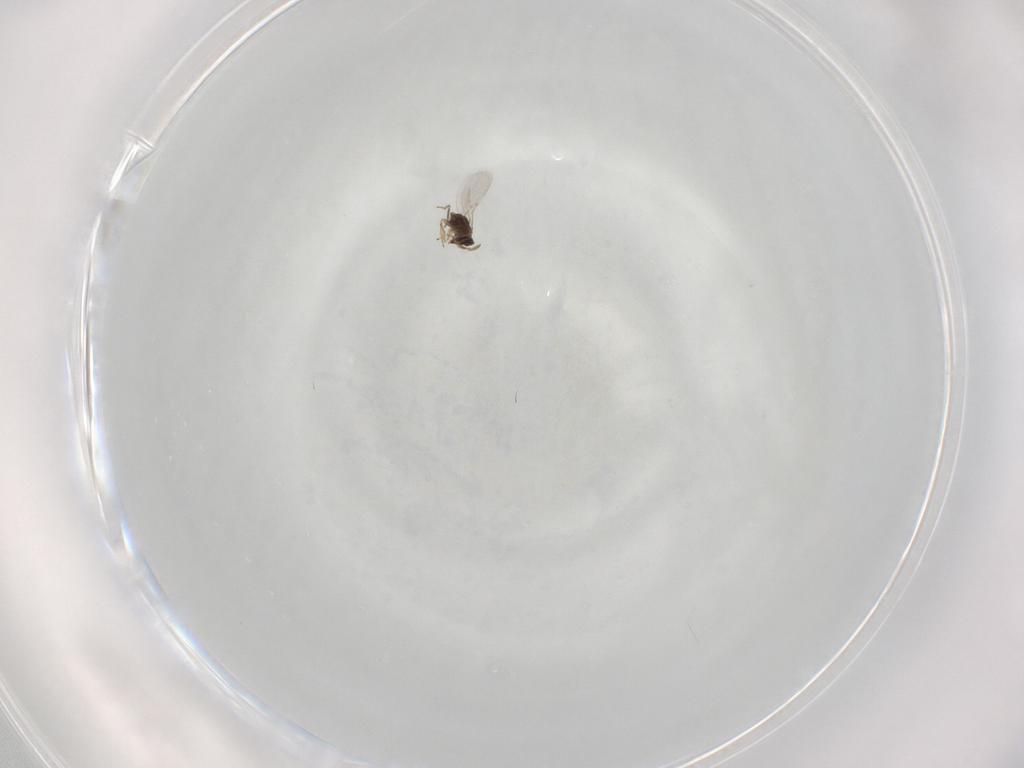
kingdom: Animalia
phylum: Arthropoda
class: Insecta
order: Hymenoptera
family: Encyrtidae
